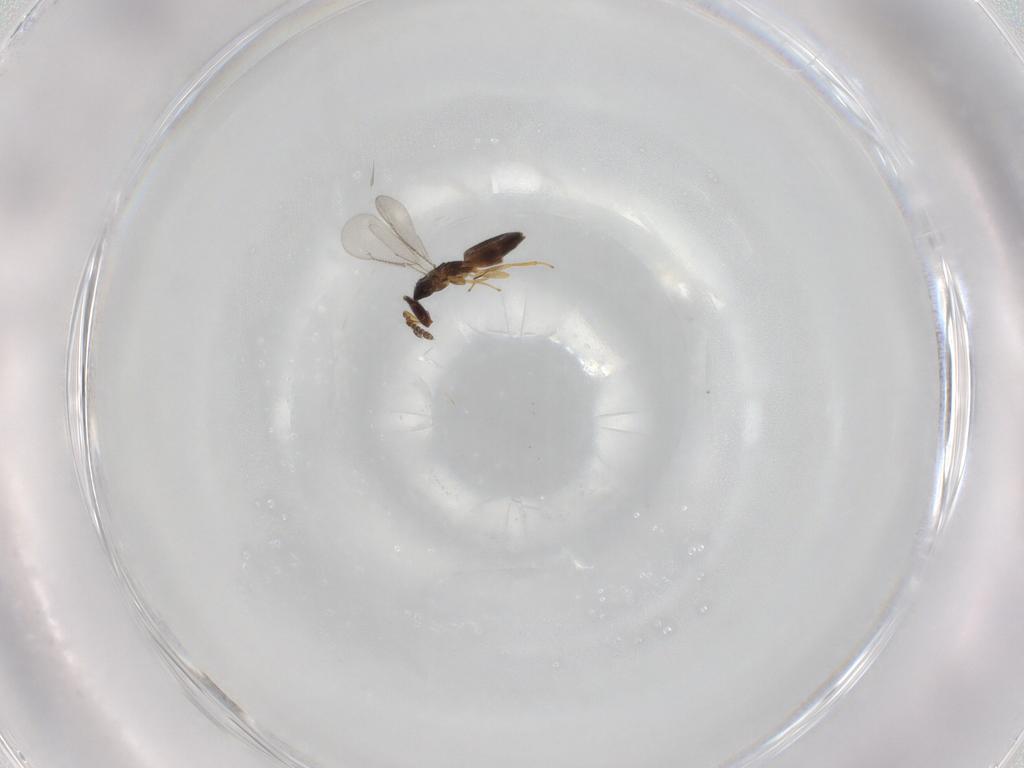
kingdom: Animalia
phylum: Arthropoda
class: Insecta
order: Hymenoptera
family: Eulophidae
